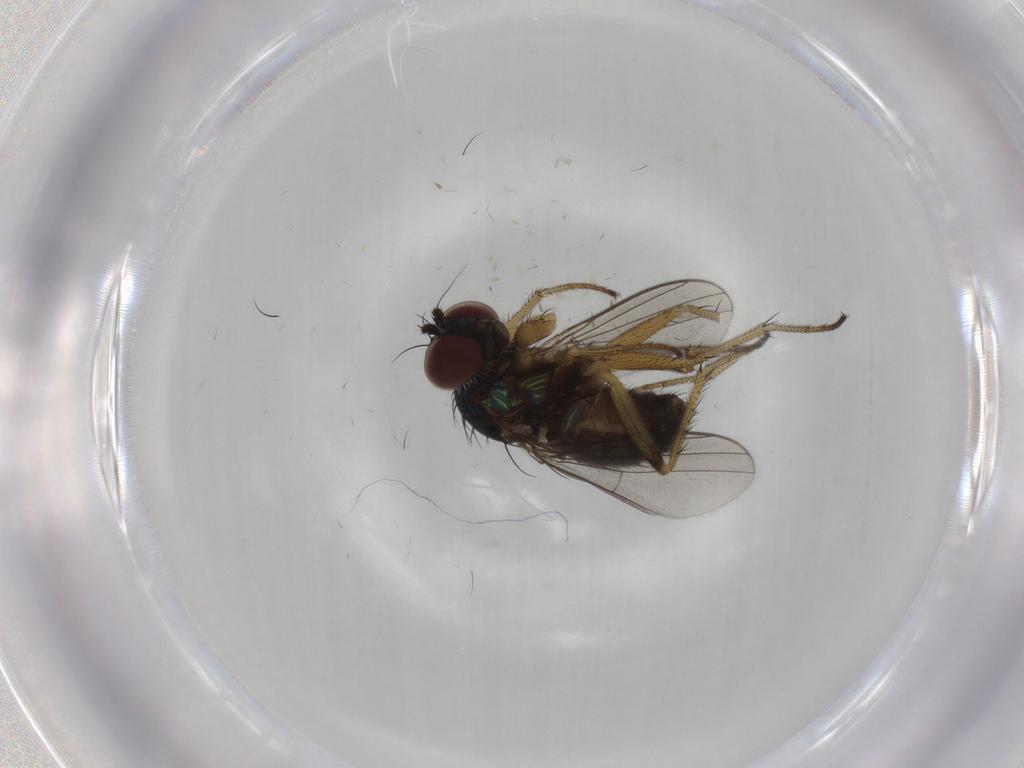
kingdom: Animalia
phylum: Arthropoda
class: Insecta
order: Diptera
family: Dolichopodidae
